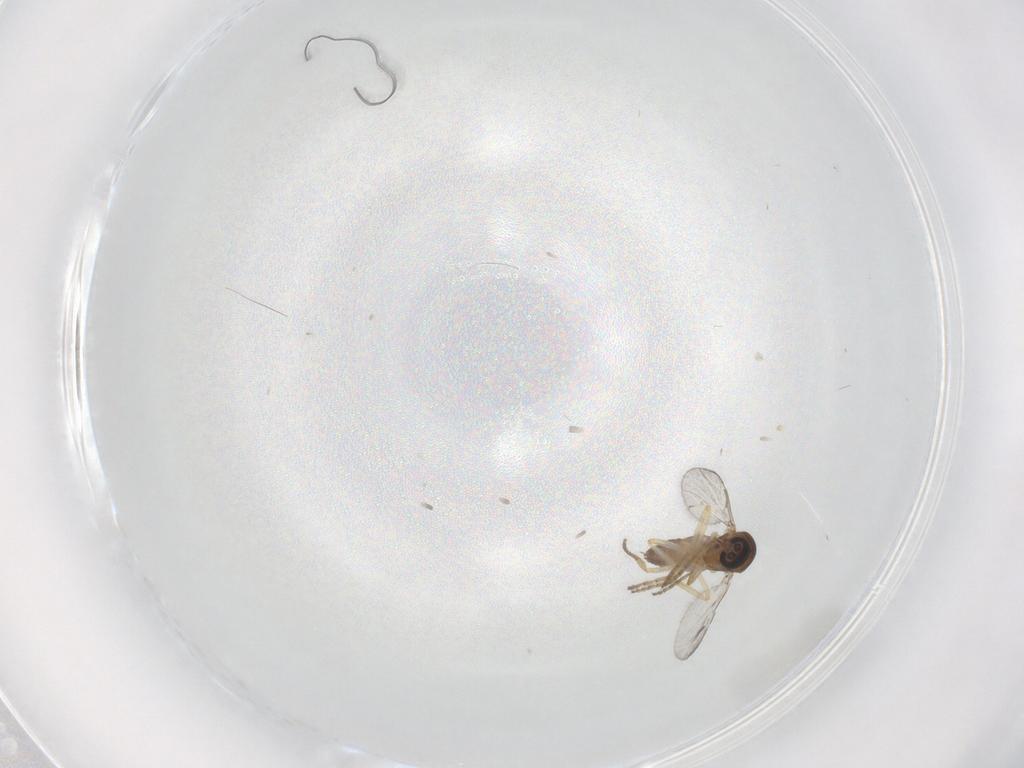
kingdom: Animalia
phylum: Arthropoda
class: Insecta
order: Diptera
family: Ceratopogonidae
